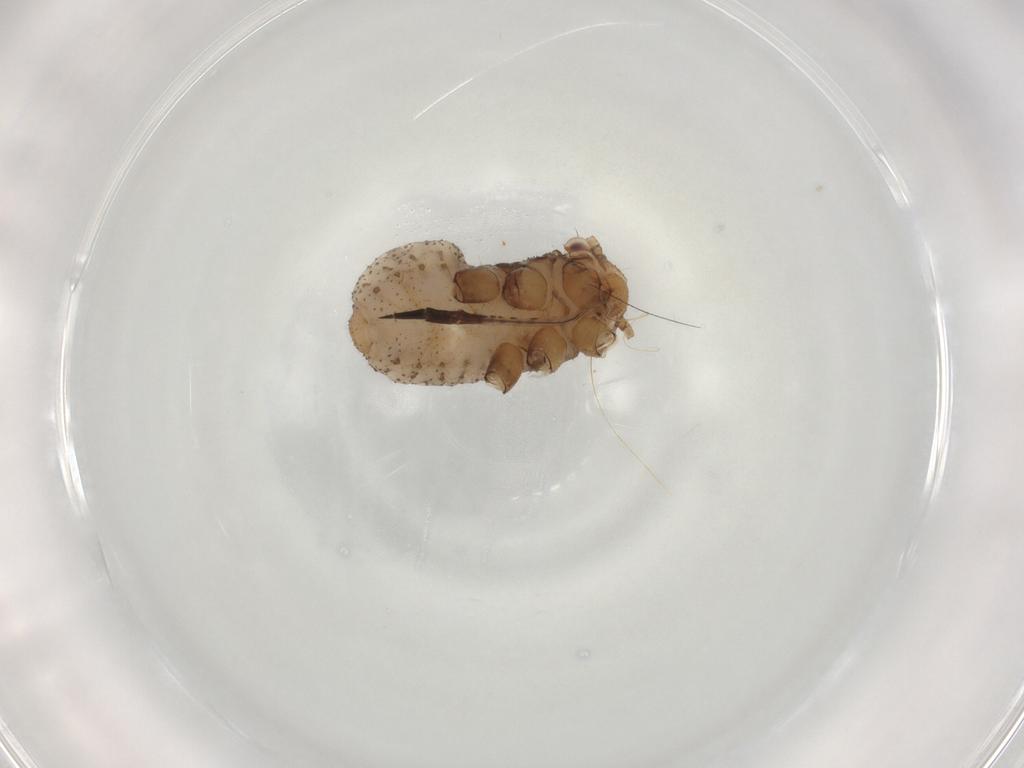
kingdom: Animalia
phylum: Arthropoda
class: Insecta
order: Hemiptera
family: Aphididae
